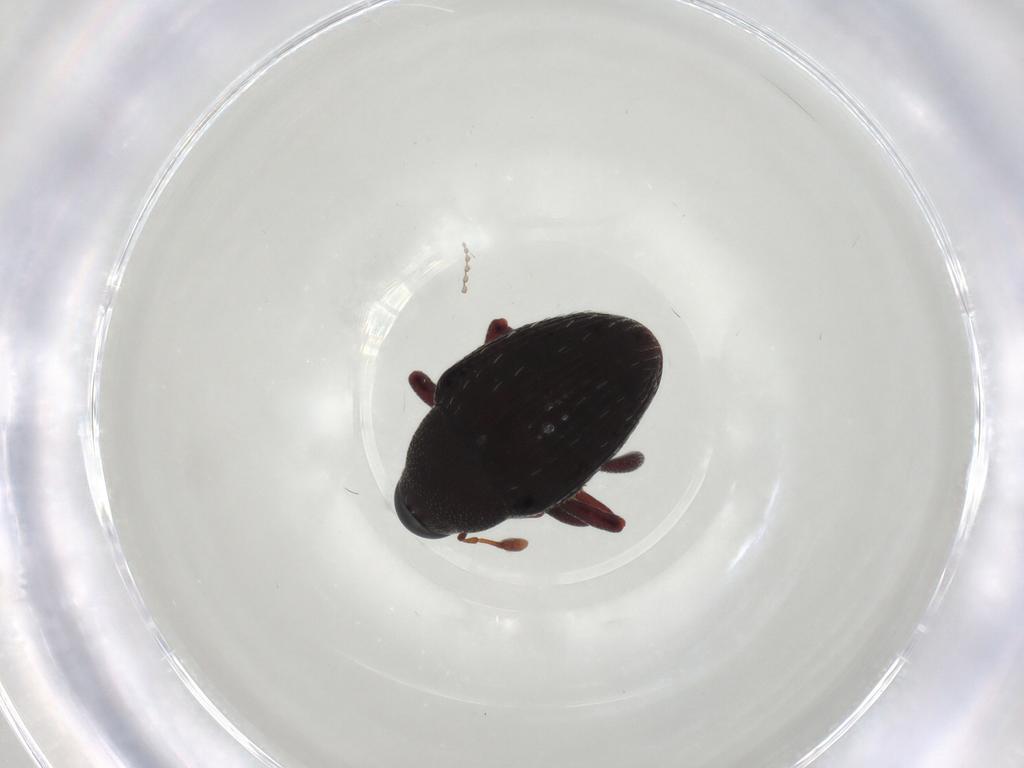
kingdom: Animalia
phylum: Arthropoda
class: Insecta
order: Coleoptera
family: Curculionidae
